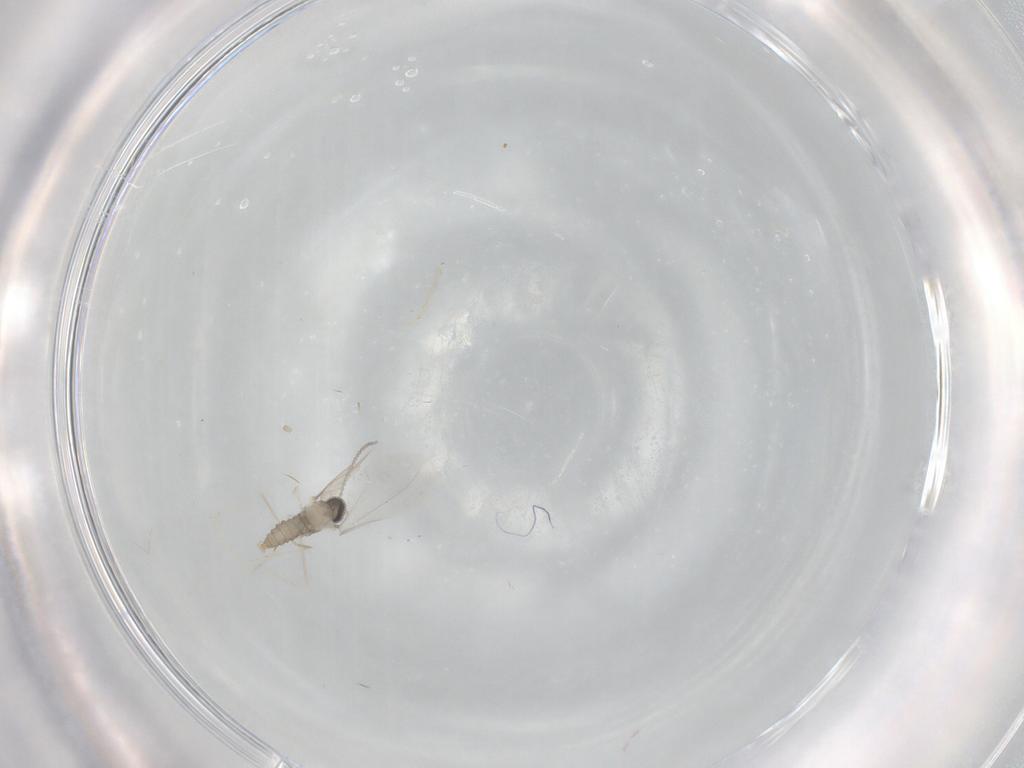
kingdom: Animalia
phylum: Arthropoda
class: Insecta
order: Diptera
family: Cecidomyiidae
